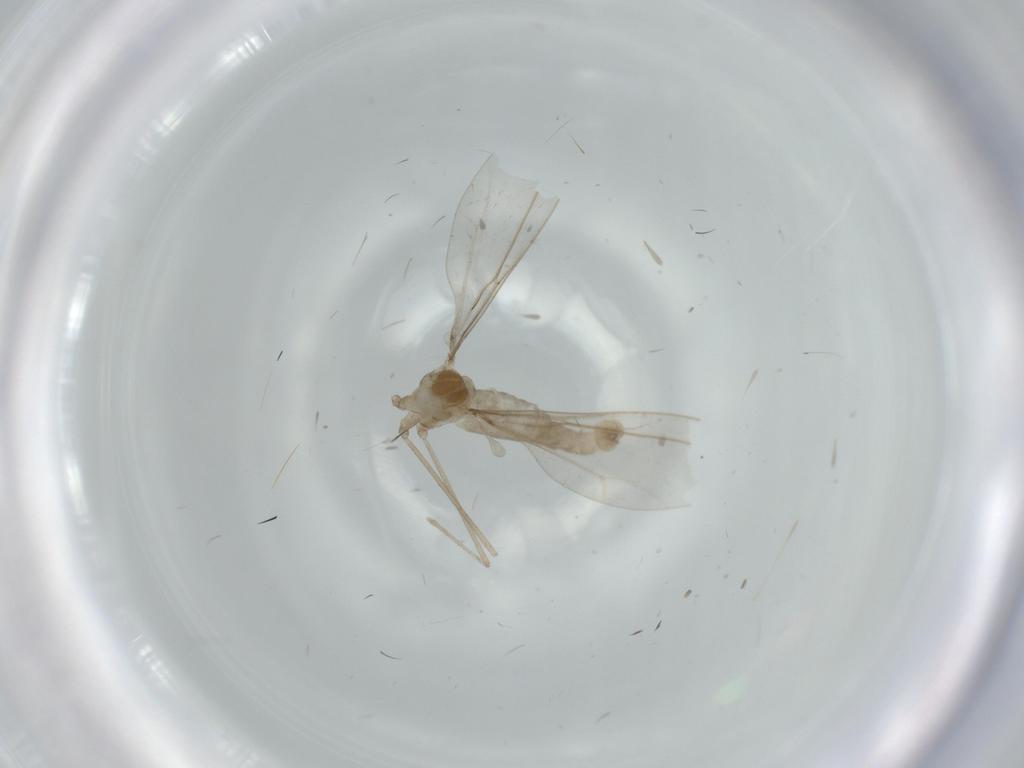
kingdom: Animalia
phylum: Arthropoda
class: Insecta
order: Diptera
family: Cecidomyiidae
